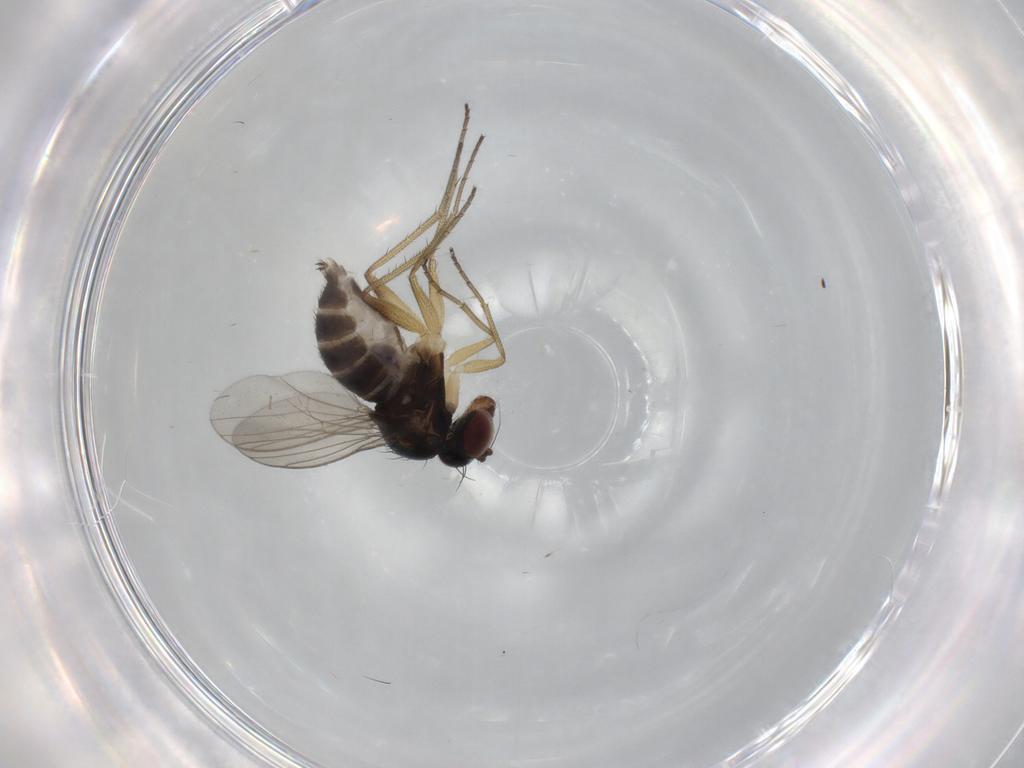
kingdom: Animalia
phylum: Arthropoda
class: Insecta
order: Diptera
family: Dolichopodidae
